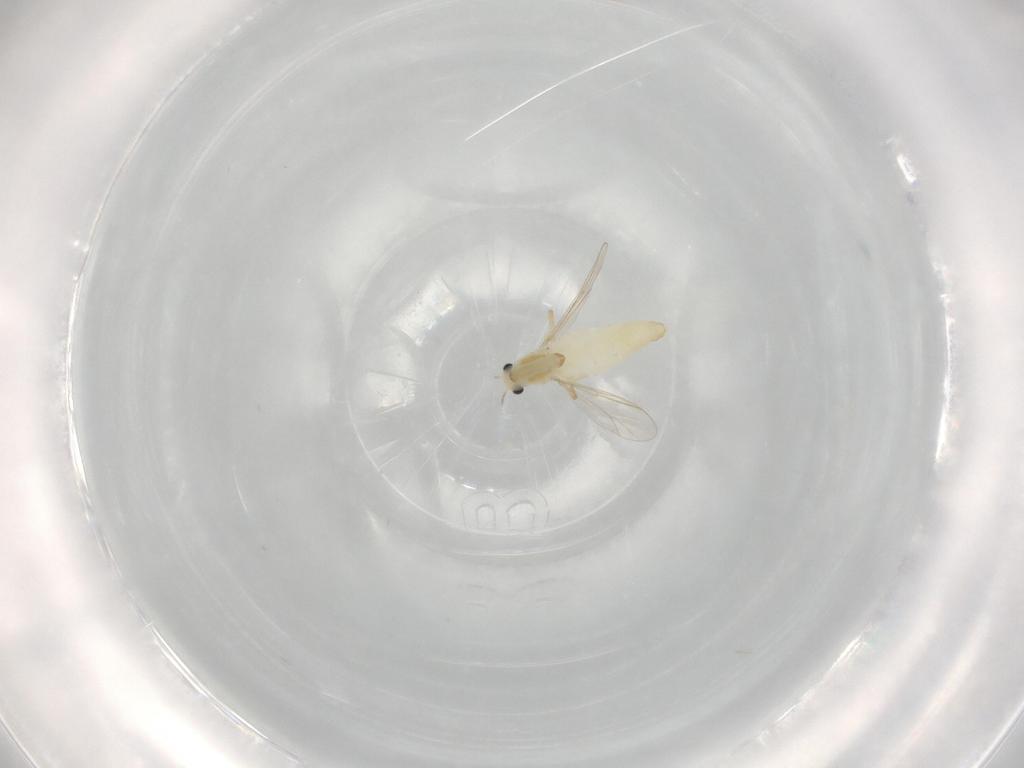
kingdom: Animalia
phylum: Arthropoda
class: Insecta
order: Diptera
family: Chironomidae
